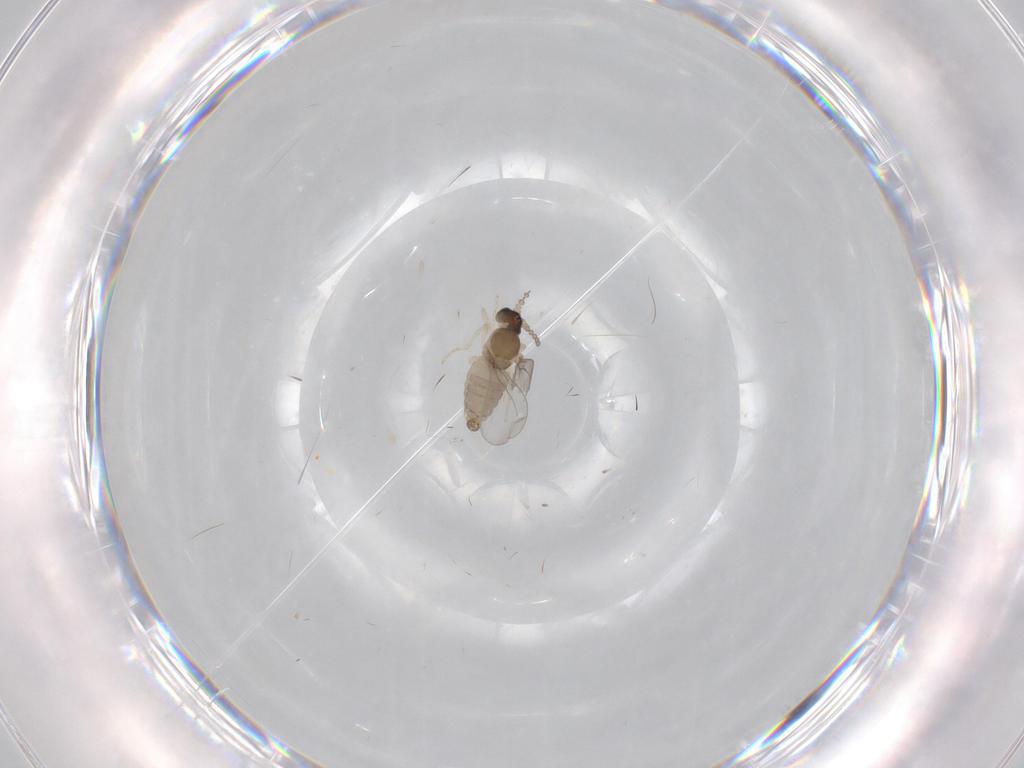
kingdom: Animalia
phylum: Arthropoda
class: Insecta
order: Diptera
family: Cecidomyiidae
